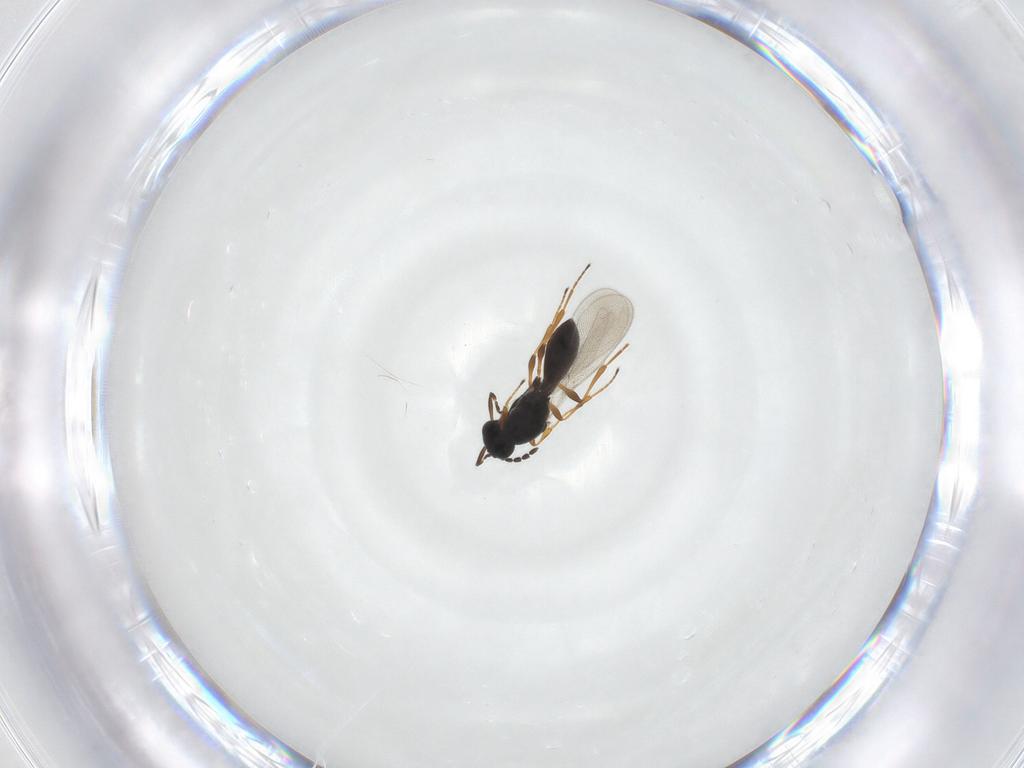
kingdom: Animalia
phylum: Arthropoda
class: Insecta
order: Hymenoptera
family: Platygastridae
